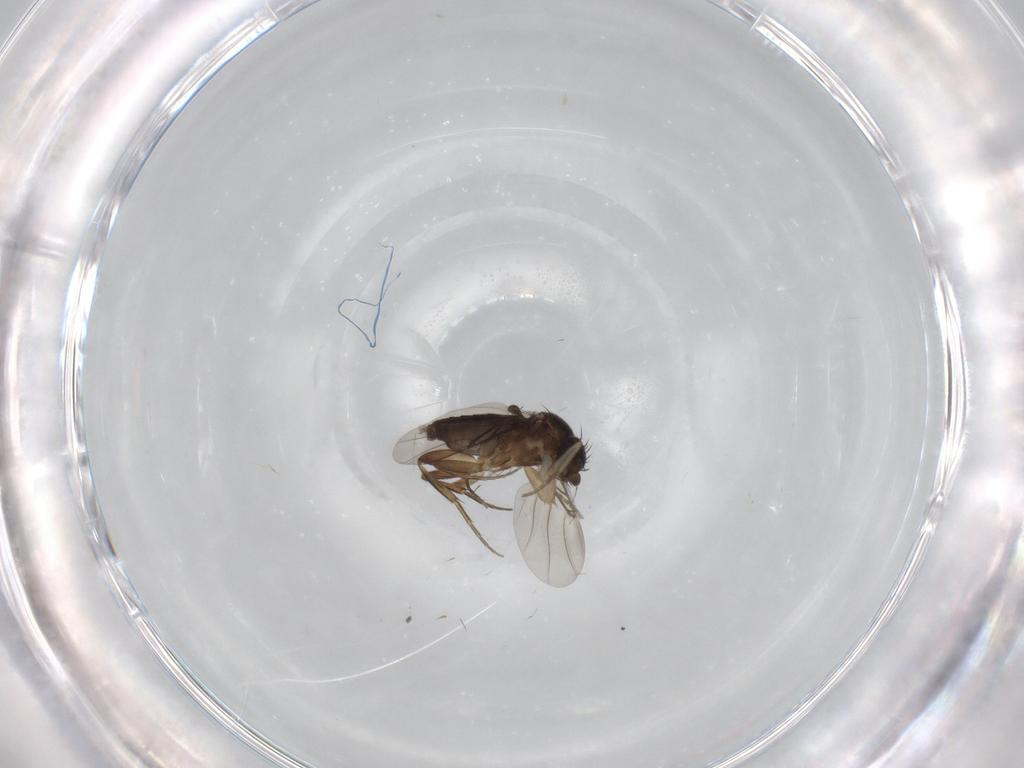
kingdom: Animalia
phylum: Arthropoda
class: Insecta
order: Diptera
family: Phoridae
